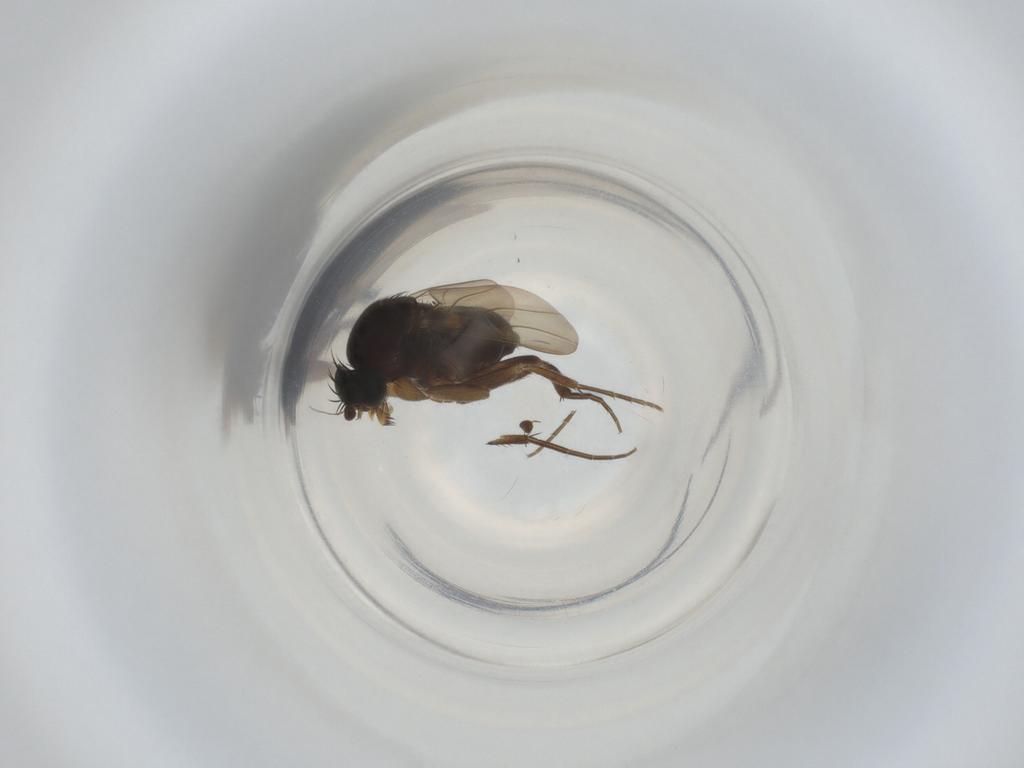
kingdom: Animalia
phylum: Arthropoda
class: Insecta
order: Diptera
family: Phoridae
